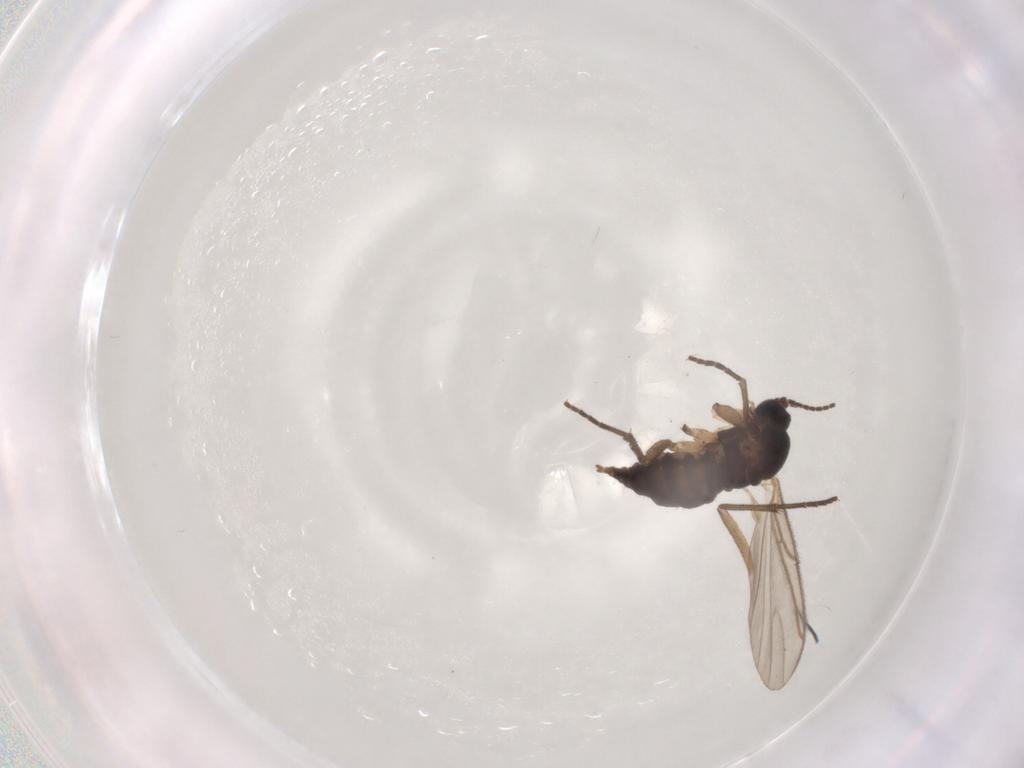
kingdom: Animalia
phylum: Arthropoda
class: Insecta
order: Diptera
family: Sciaridae
